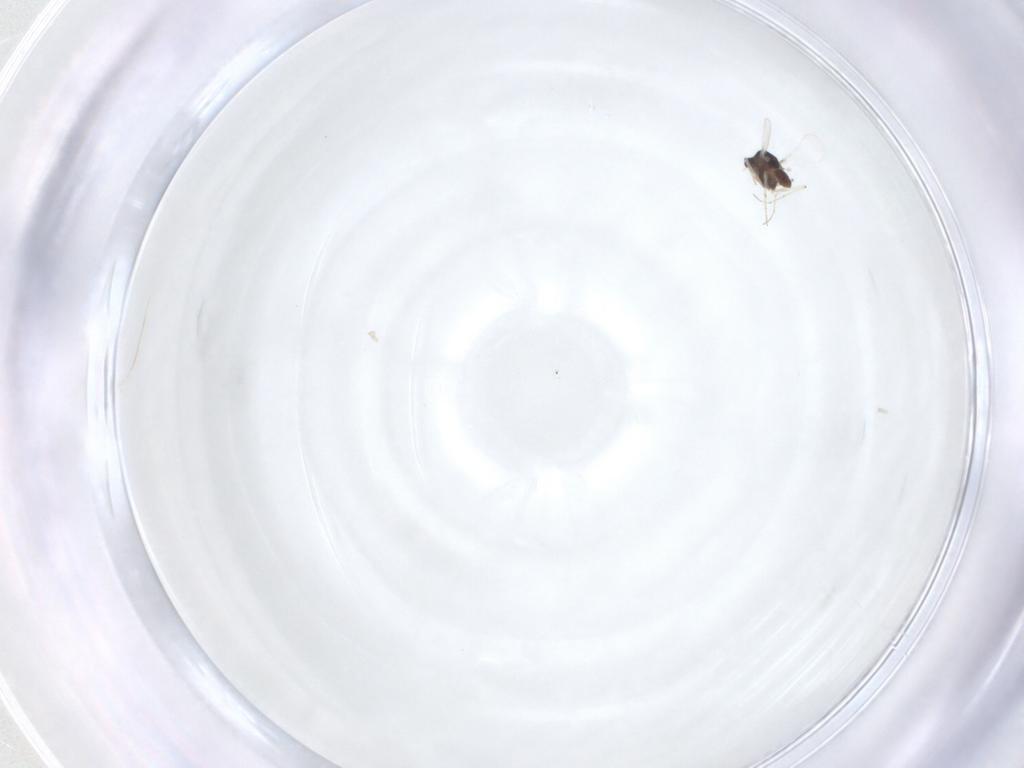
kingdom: Animalia
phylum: Arthropoda
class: Insecta
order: Diptera
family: Chironomidae
